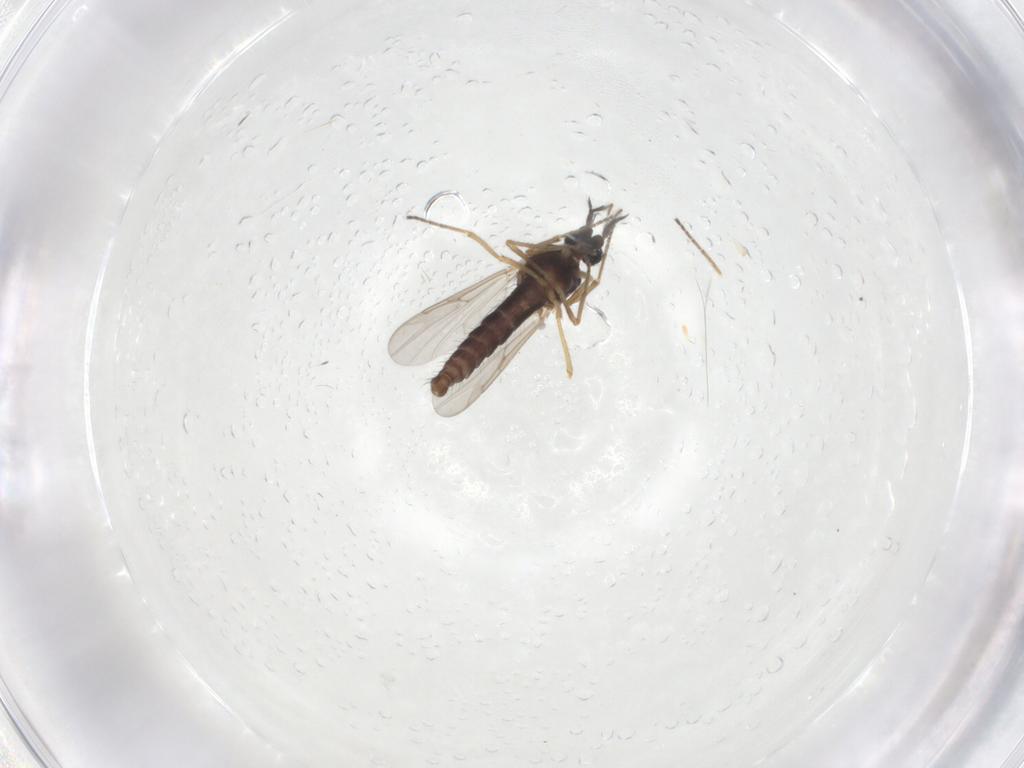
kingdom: Animalia
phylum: Arthropoda
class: Insecta
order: Diptera
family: Ceratopogonidae
